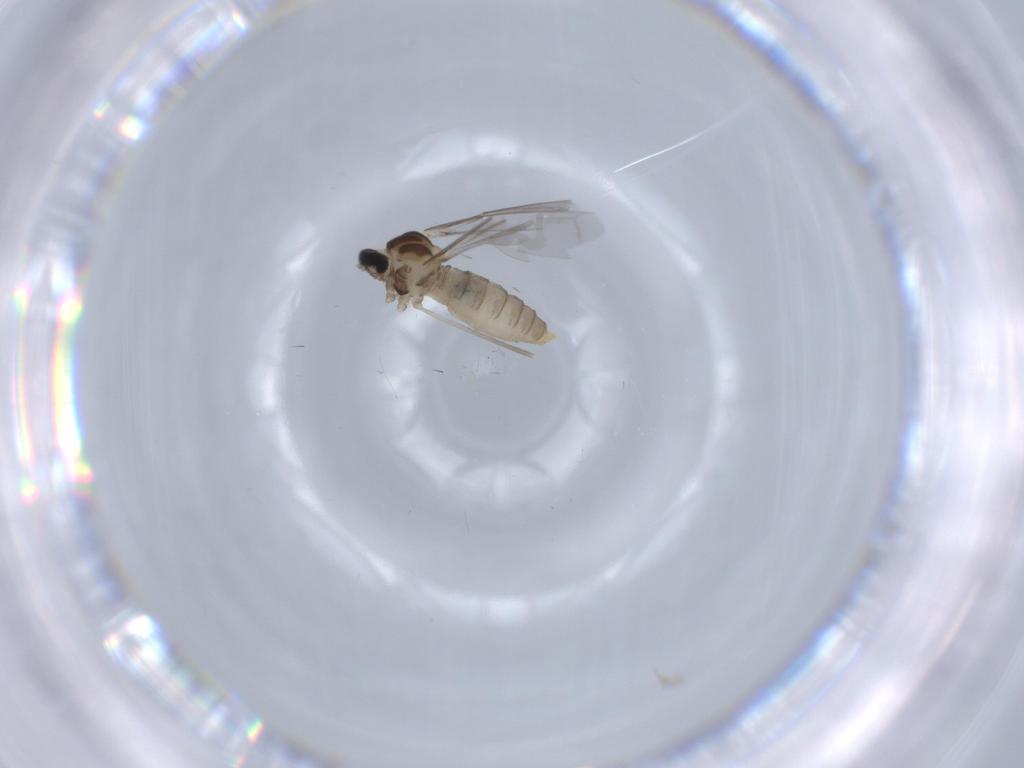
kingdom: Animalia
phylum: Arthropoda
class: Insecta
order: Diptera
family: Cecidomyiidae
